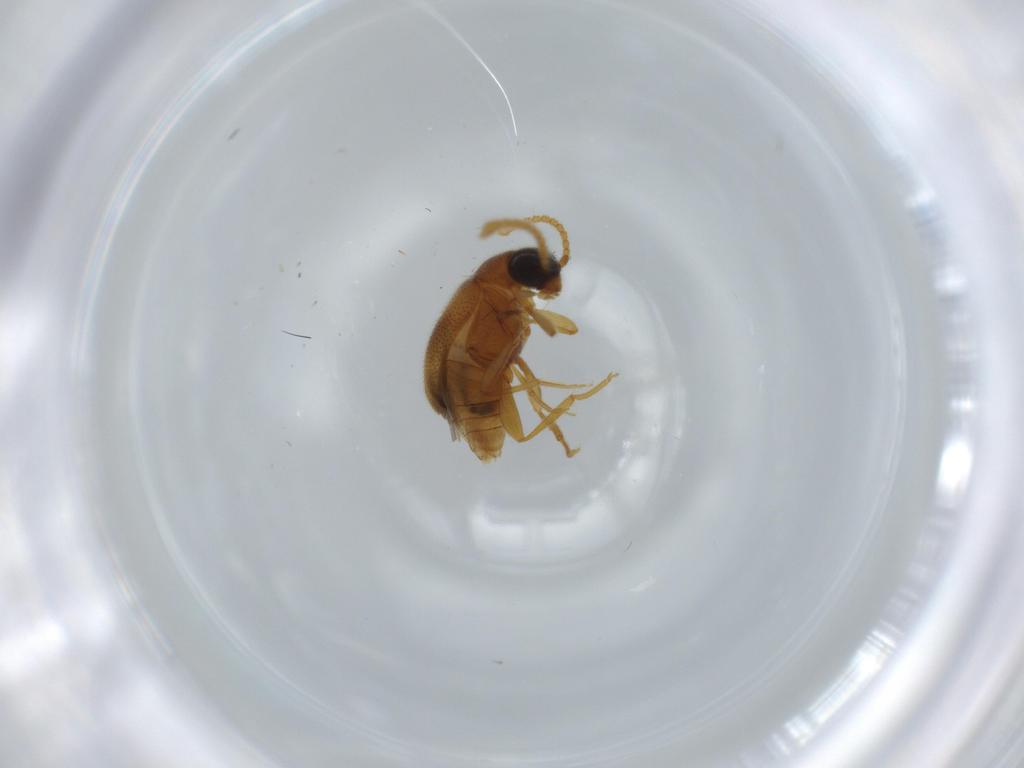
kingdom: Animalia
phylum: Arthropoda
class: Insecta
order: Coleoptera
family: Aderidae
